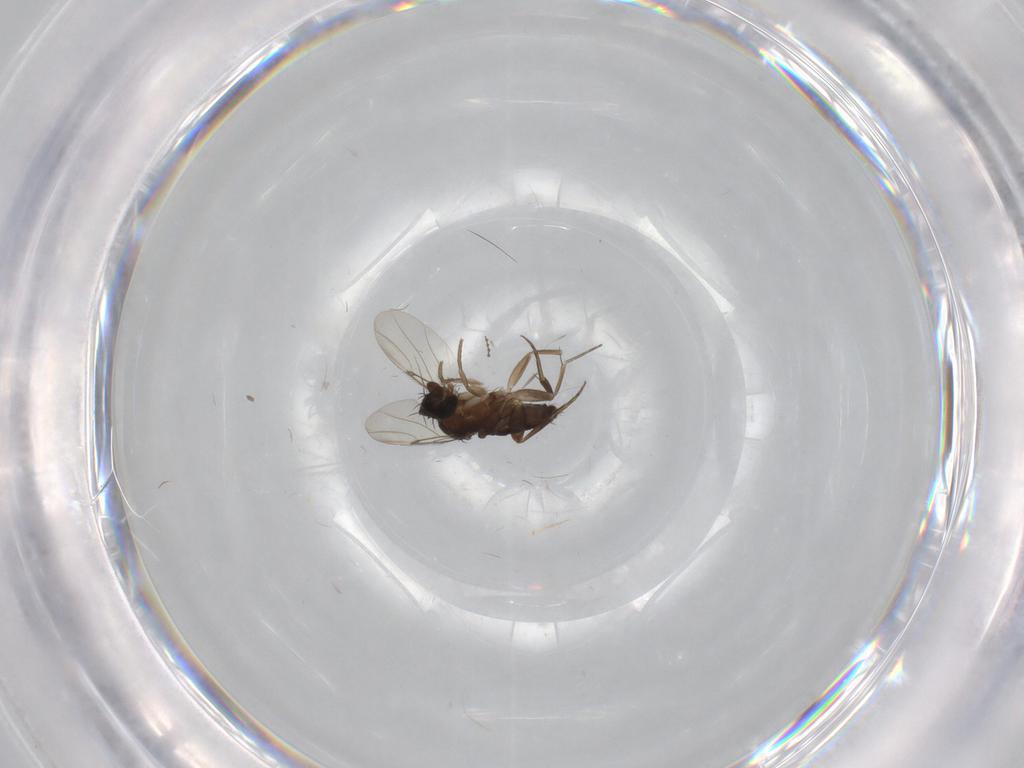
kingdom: Animalia
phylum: Arthropoda
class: Insecta
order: Diptera
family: Phoridae
